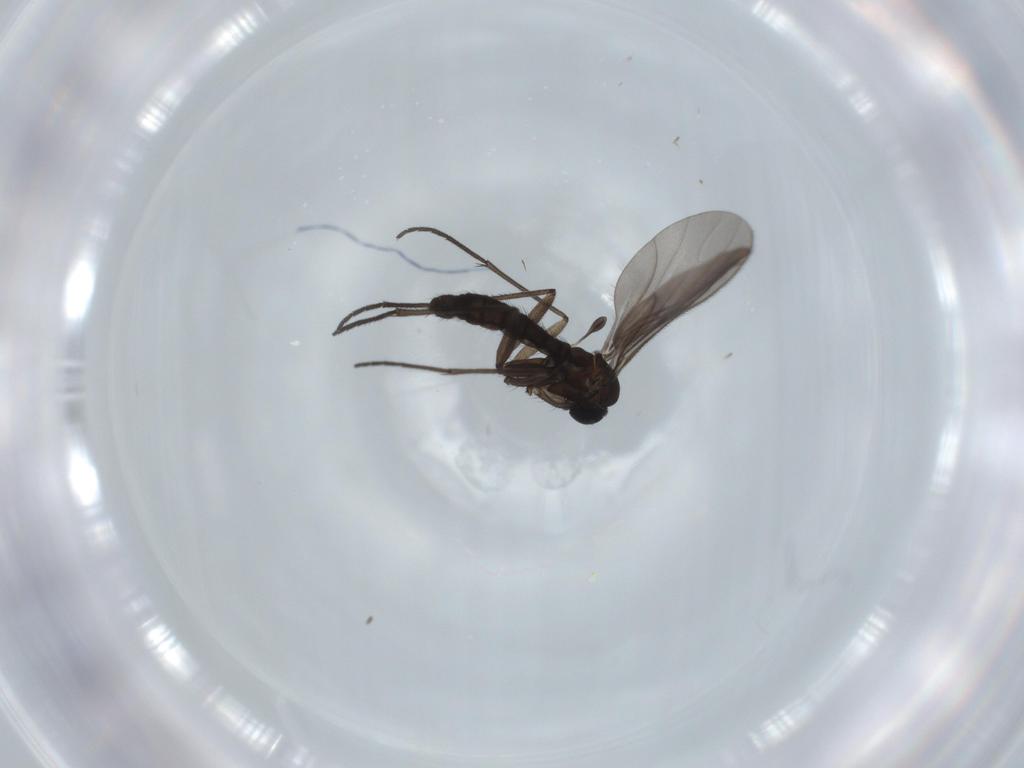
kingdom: Animalia
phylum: Arthropoda
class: Insecta
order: Diptera
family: Sciaridae
